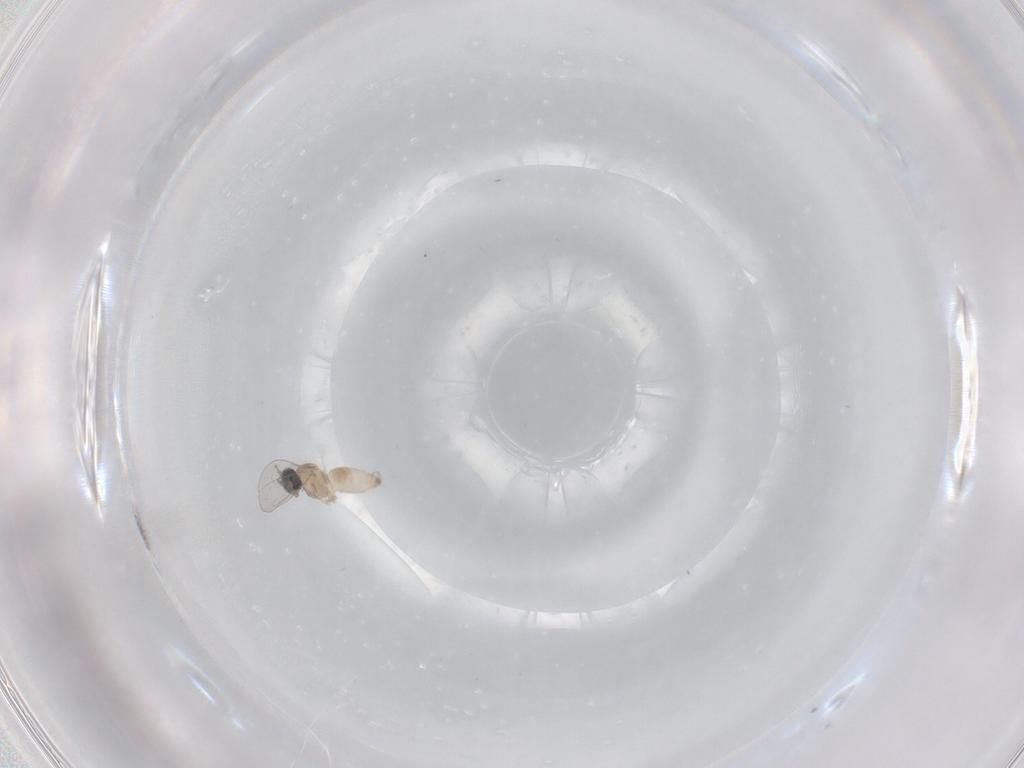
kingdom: Animalia
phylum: Arthropoda
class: Insecta
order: Diptera
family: Cecidomyiidae
